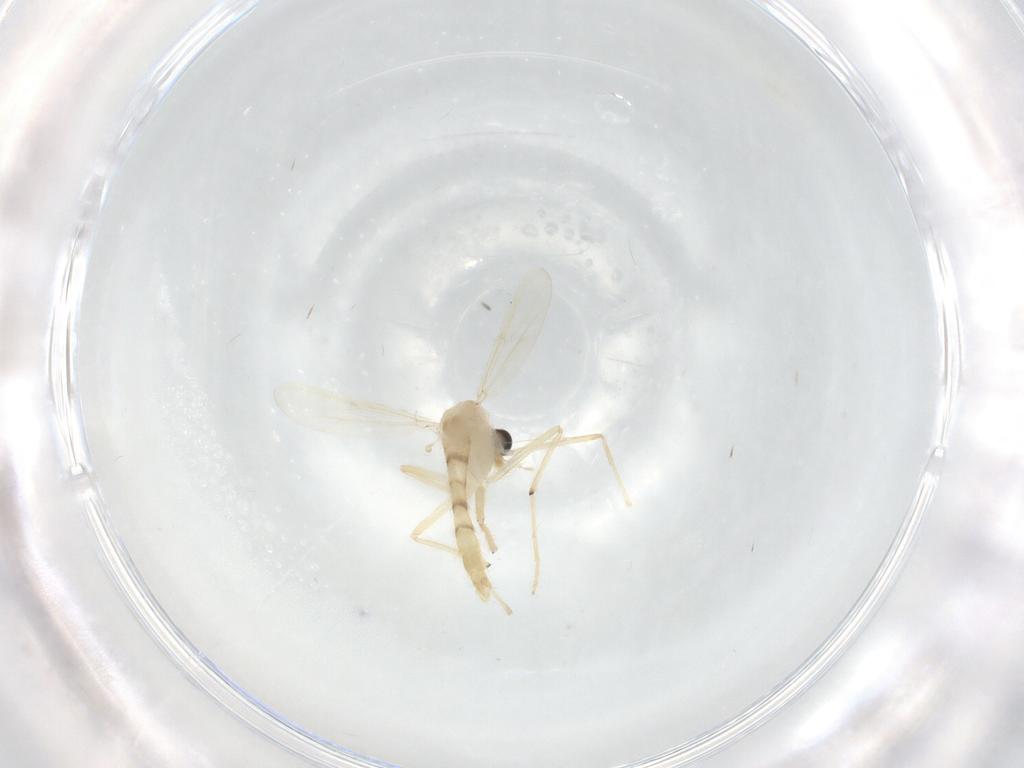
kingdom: Animalia
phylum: Arthropoda
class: Insecta
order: Diptera
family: Chironomidae
